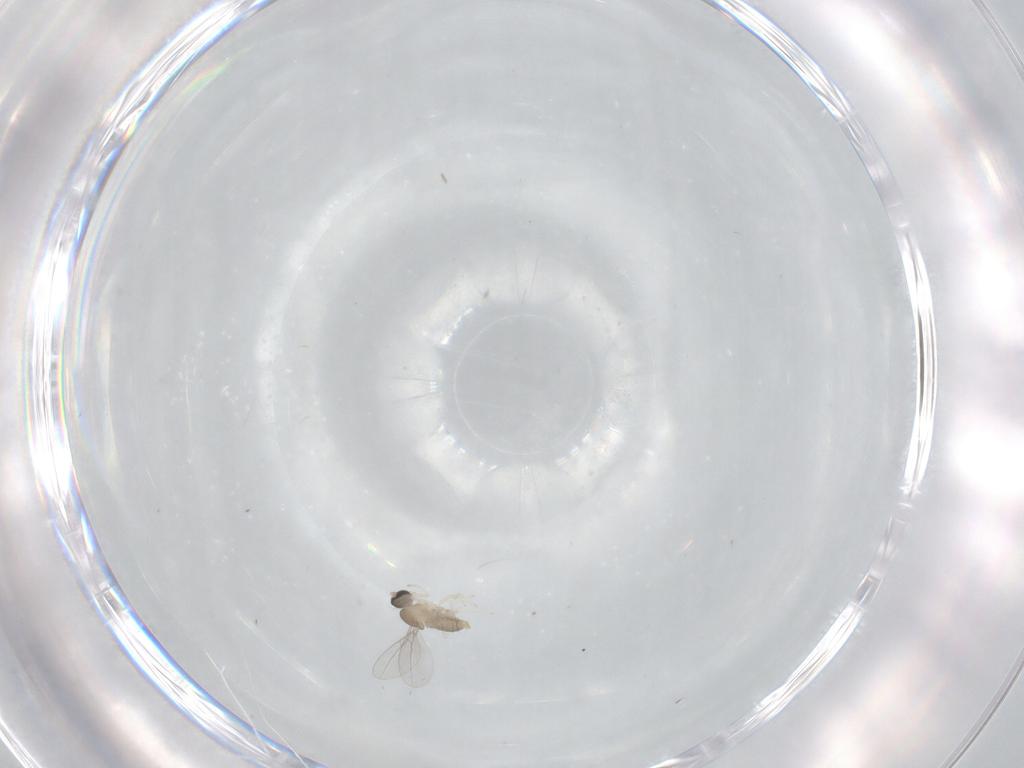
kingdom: Animalia
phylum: Arthropoda
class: Insecta
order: Diptera
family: Cecidomyiidae
